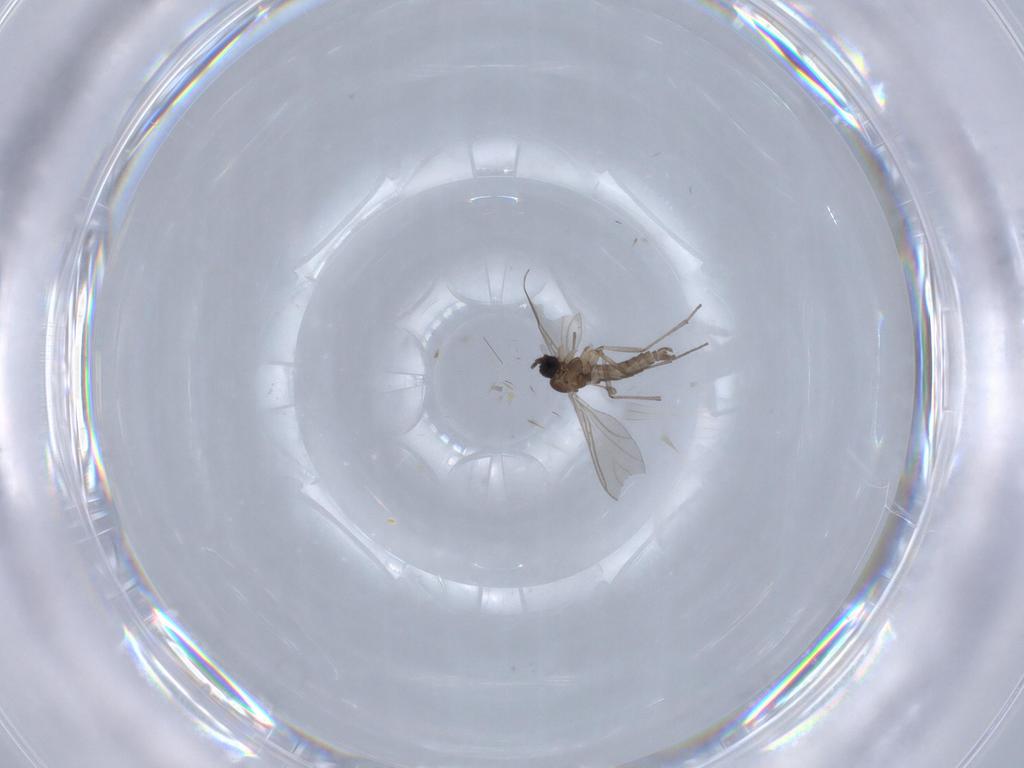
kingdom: Animalia
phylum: Arthropoda
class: Insecta
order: Diptera
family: Sciaridae
